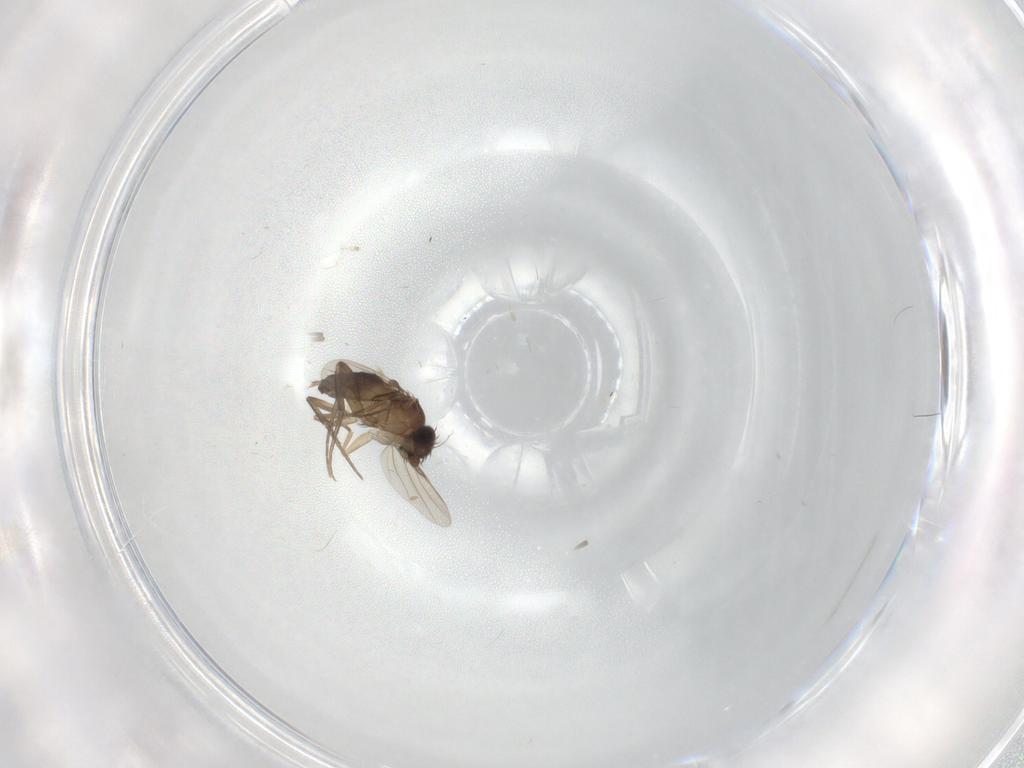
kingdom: Animalia
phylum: Arthropoda
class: Insecta
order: Diptera
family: Phoridae
